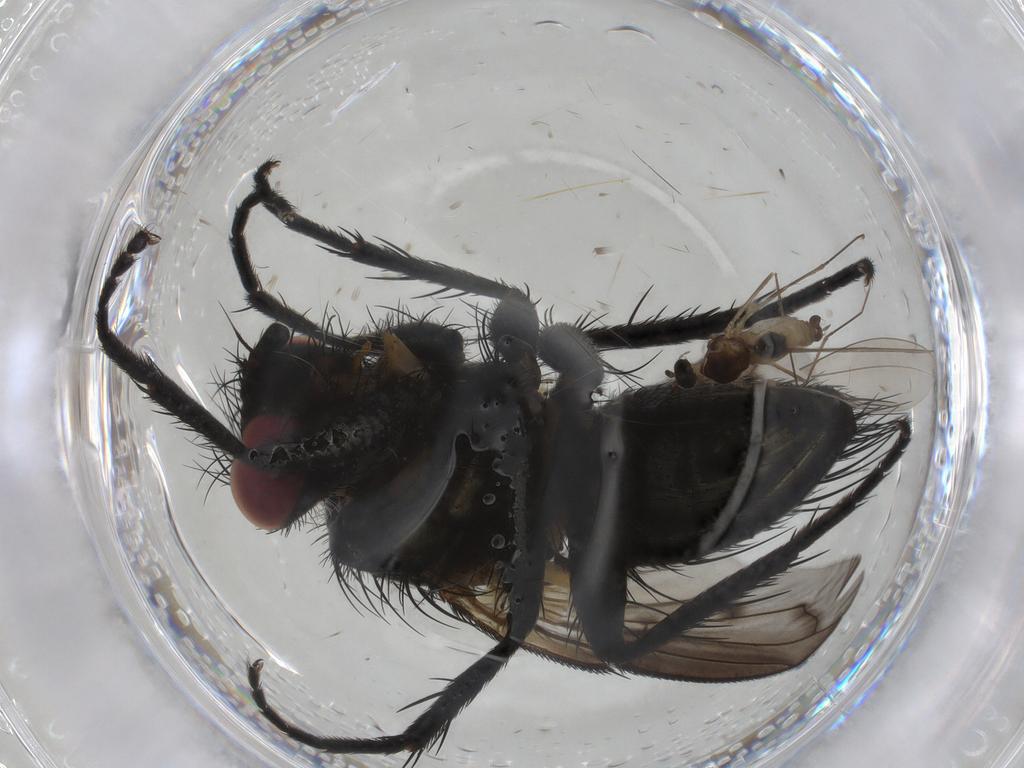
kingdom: Animalia
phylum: Arthropoda
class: Insecta
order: Diptera
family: Tachinidae
